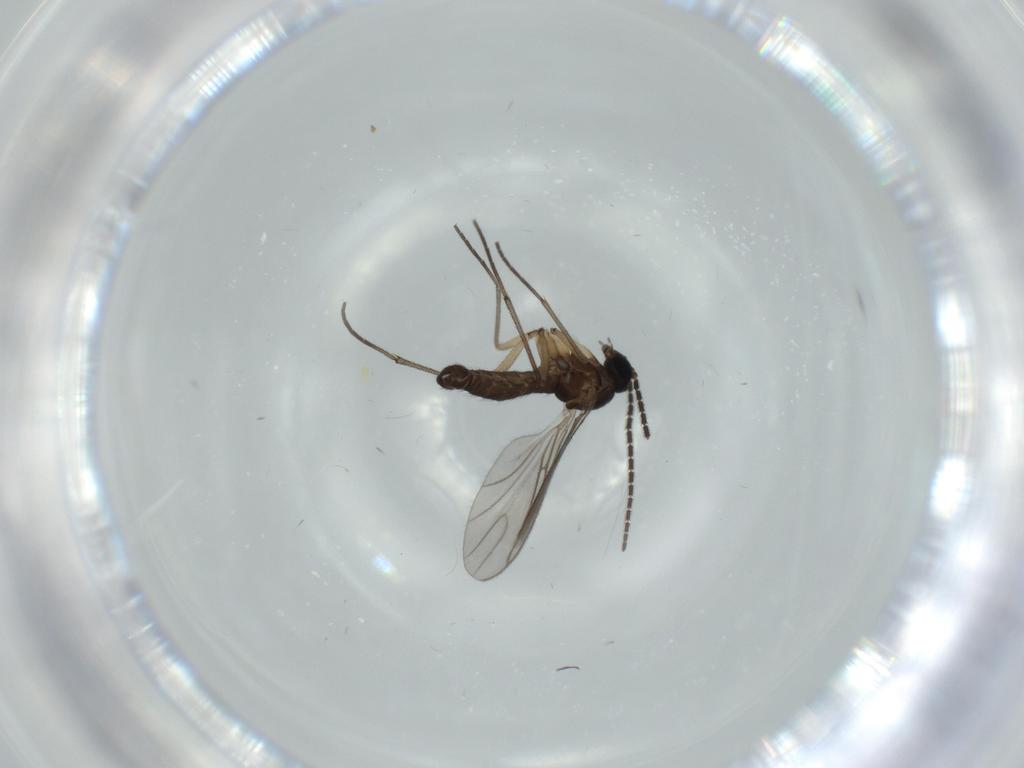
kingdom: Animalia
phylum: Arthropoda
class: Insecta
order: Diptera
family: Sciaridae
